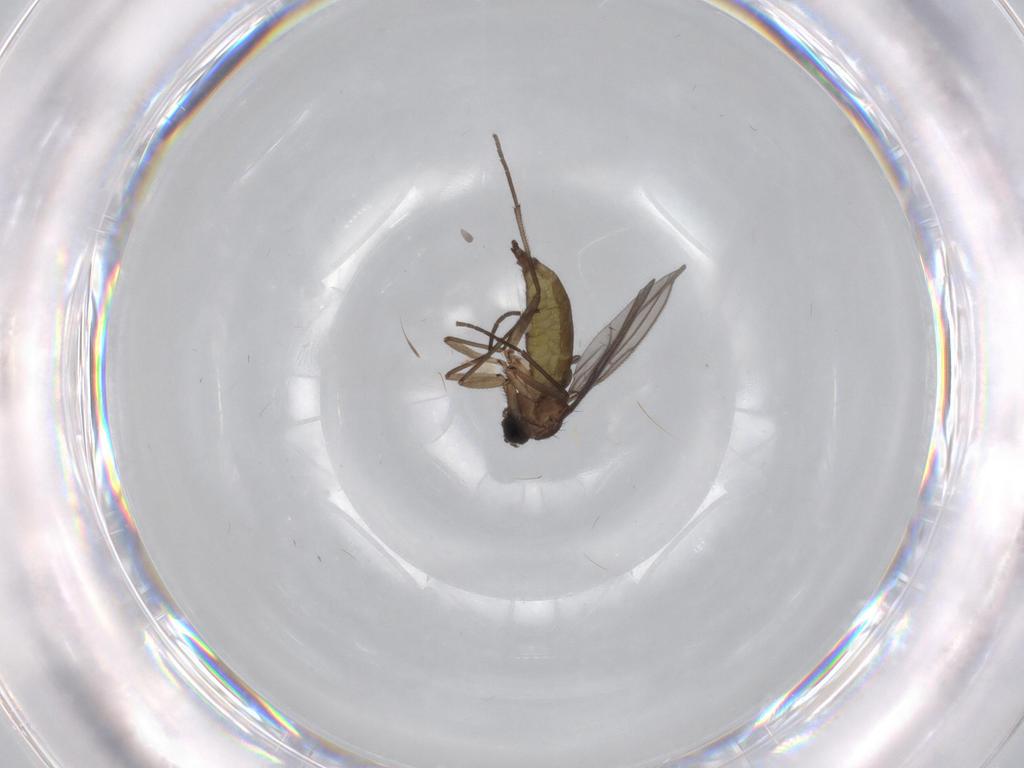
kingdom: Animalia
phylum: Arthropoda
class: Insecta
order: Diptera
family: Sciaridae
